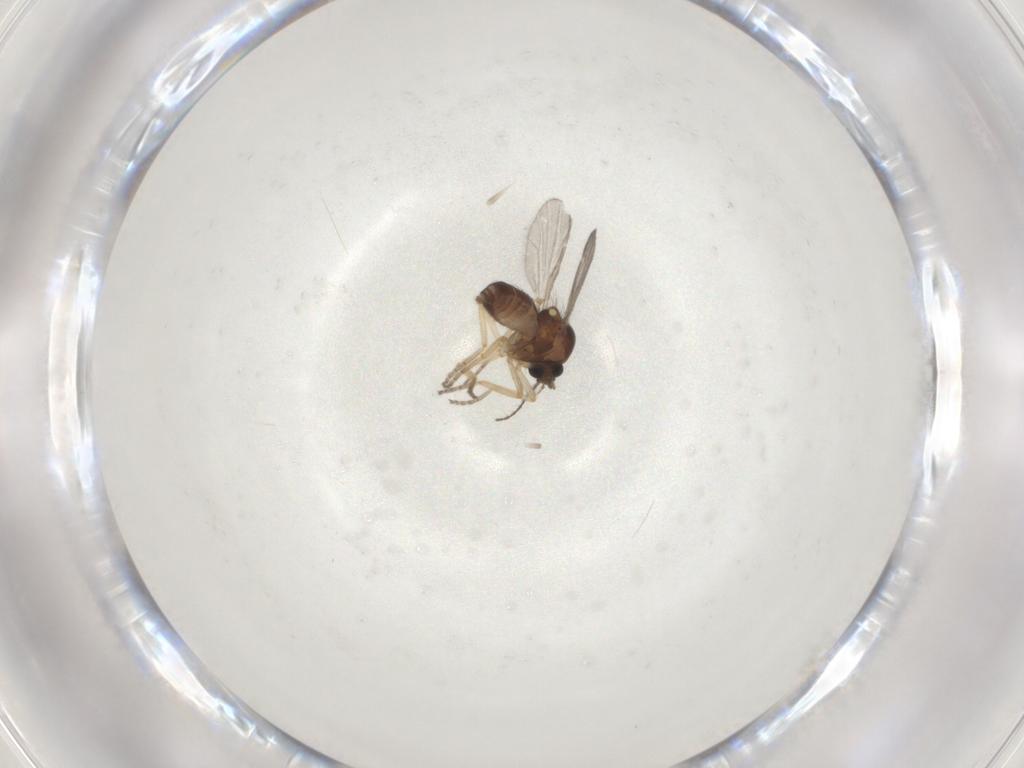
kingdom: Animalia
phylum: Arthropoda
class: Insecta
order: Diptera
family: Ceratopogonidae
